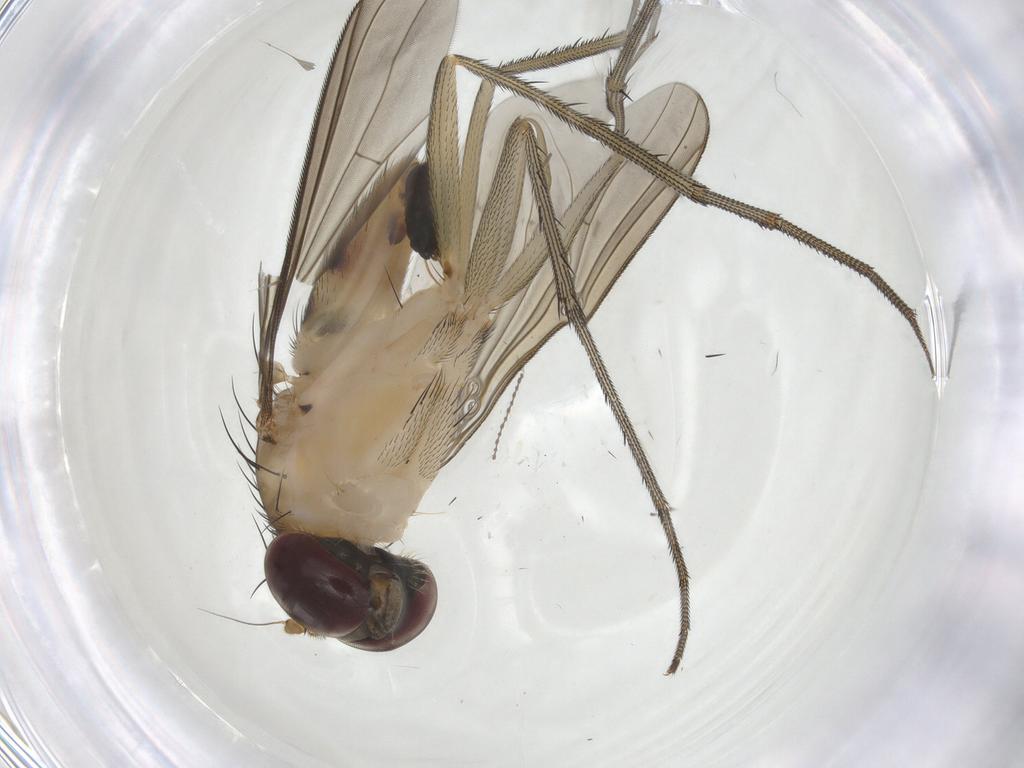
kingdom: Animalia
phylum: Arthropoda
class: Insecta
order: Diptera
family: Dolichopodidae
